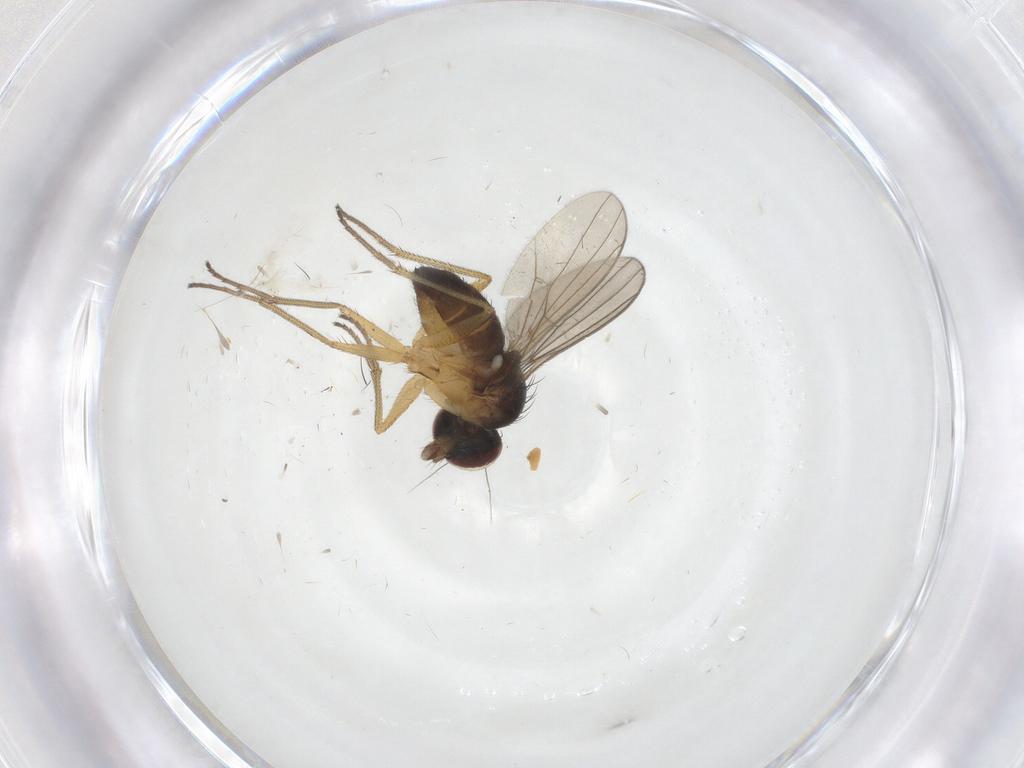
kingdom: Animalia
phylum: Arthropoda
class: Insecta
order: Diptera
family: Dolichopodidae
